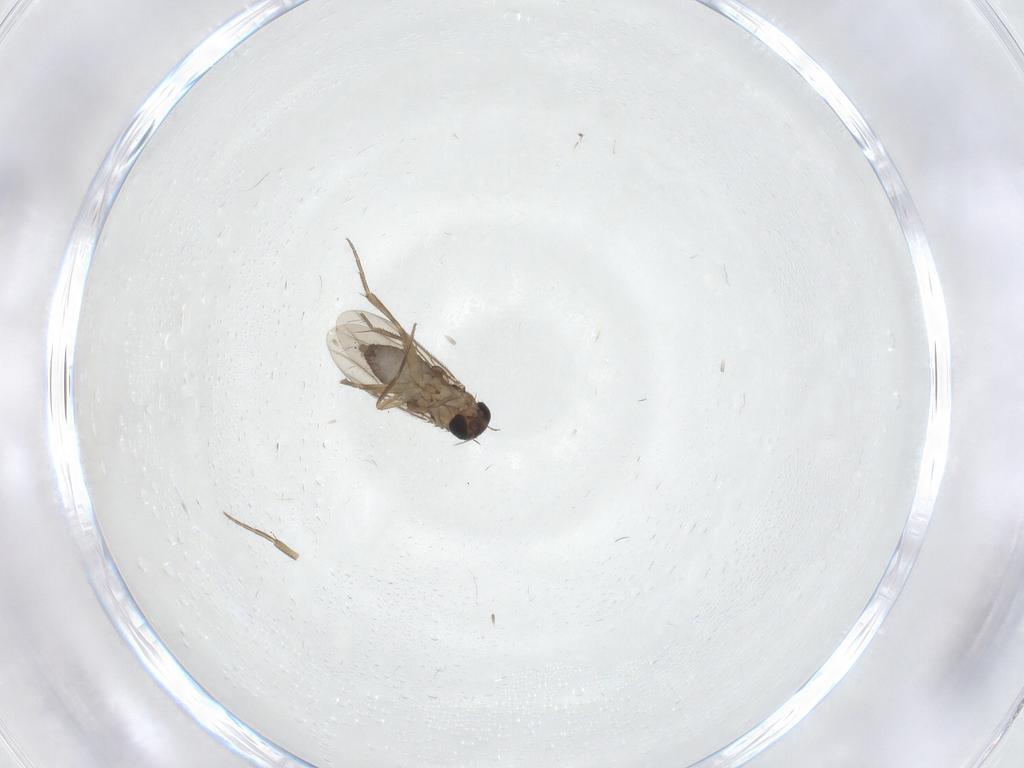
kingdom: Animalia
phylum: Arthropoda
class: Insecta
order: Diptera
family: Phoridae
